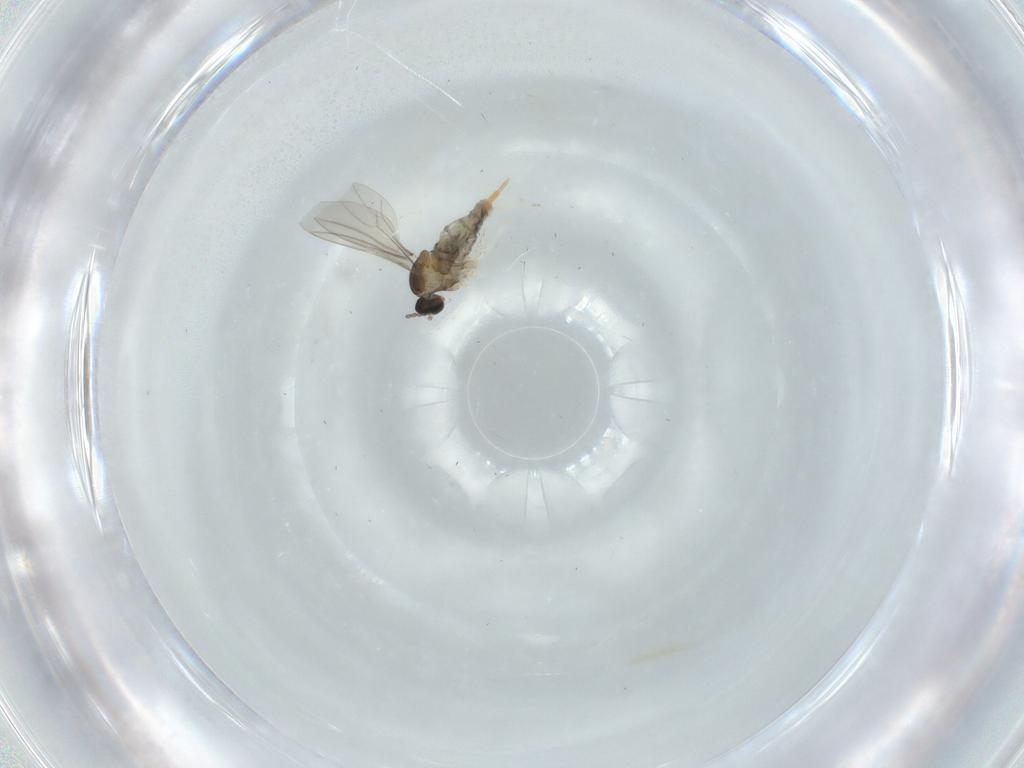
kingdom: Animalia
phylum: Arthropoda
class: Insecta
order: Diptera
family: Cecidomyiidae
